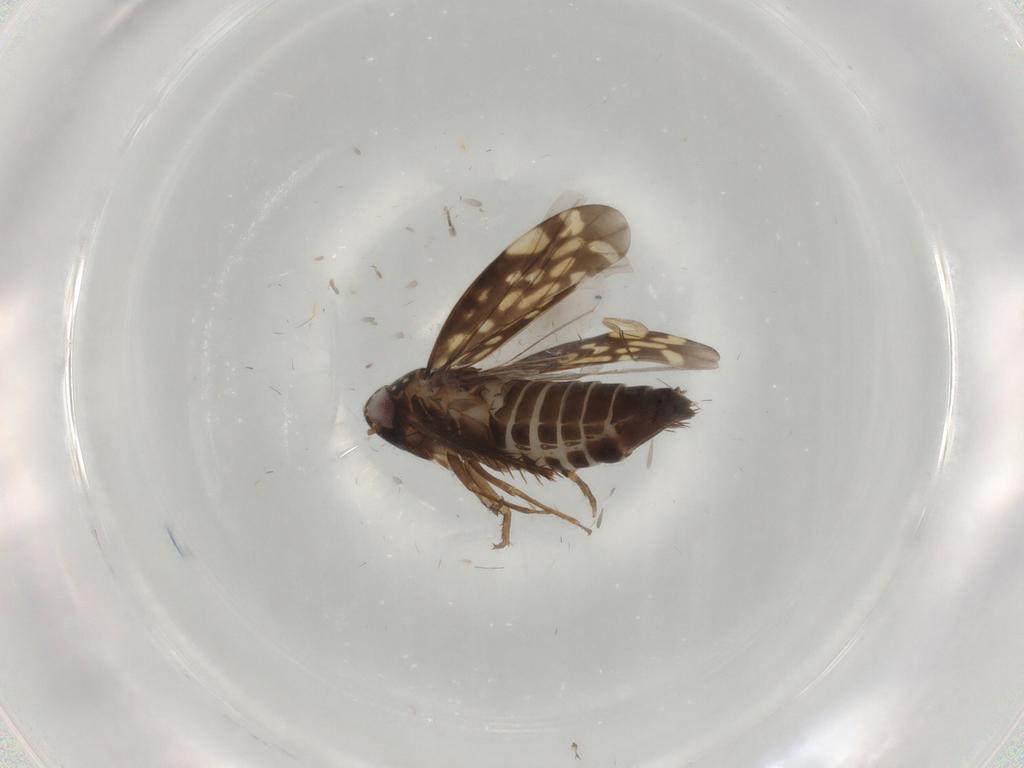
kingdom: Animalia
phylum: Arthropoda
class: Insecta
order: Hemiptera
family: Cicadellidae
